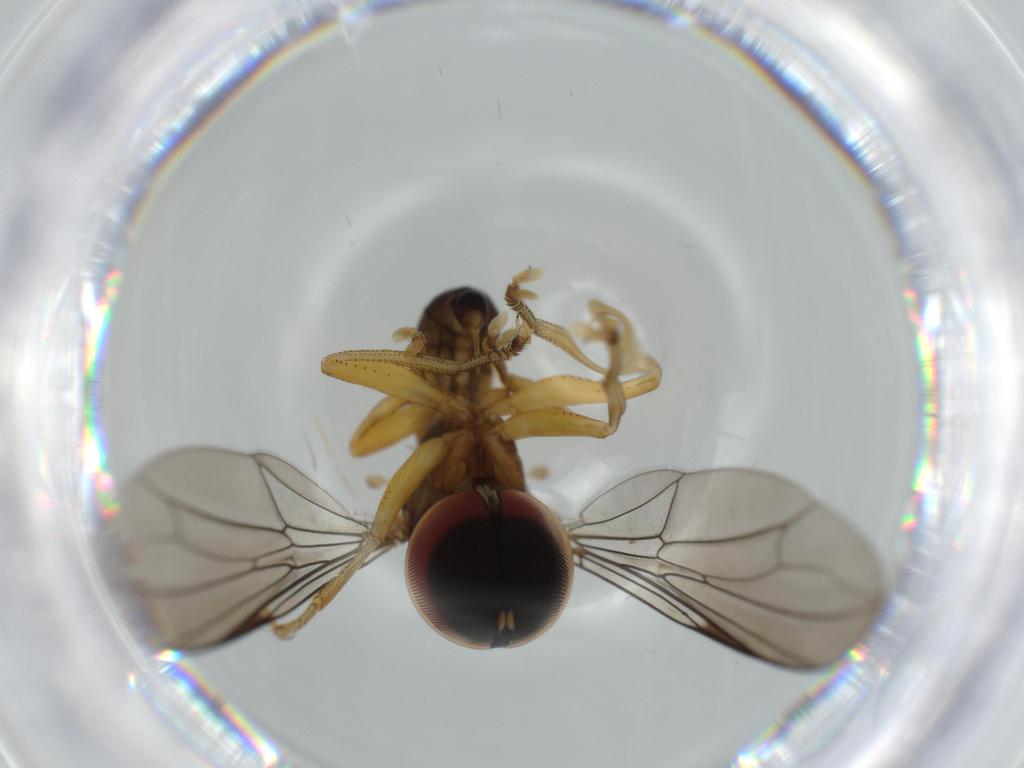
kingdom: Animalia
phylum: Arthropoda
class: Insecta
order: Diptera
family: Pipunculidae
